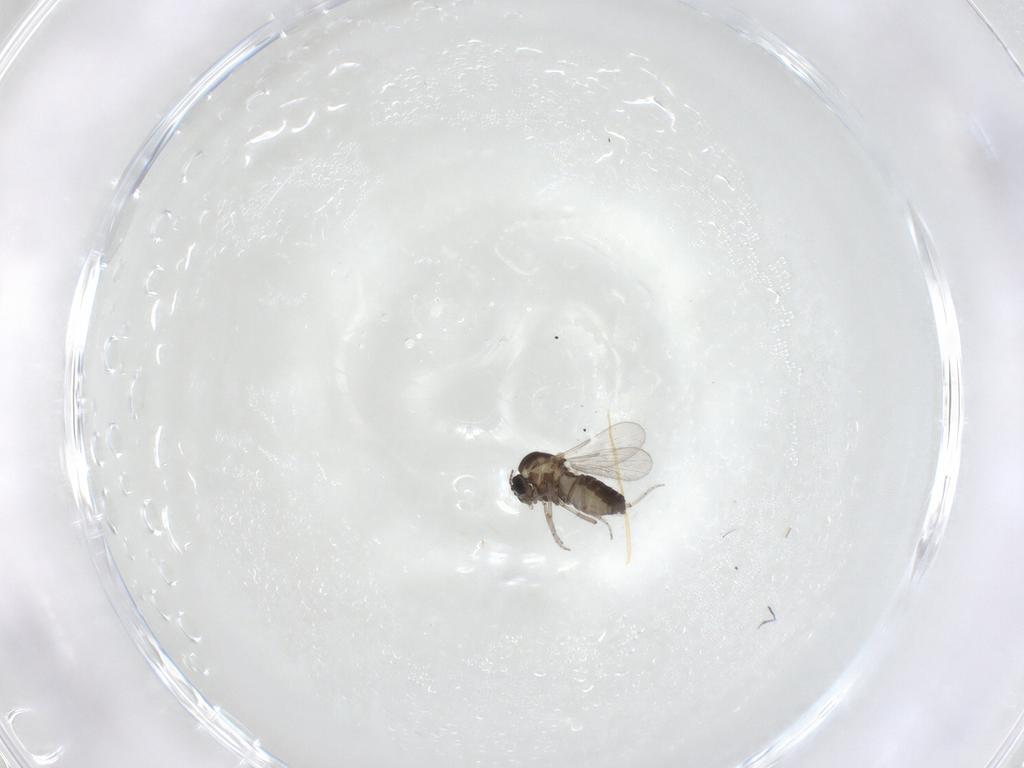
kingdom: Animalia
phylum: Arthropoda
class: Insecta
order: Diptera
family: Ceratopogonidae
